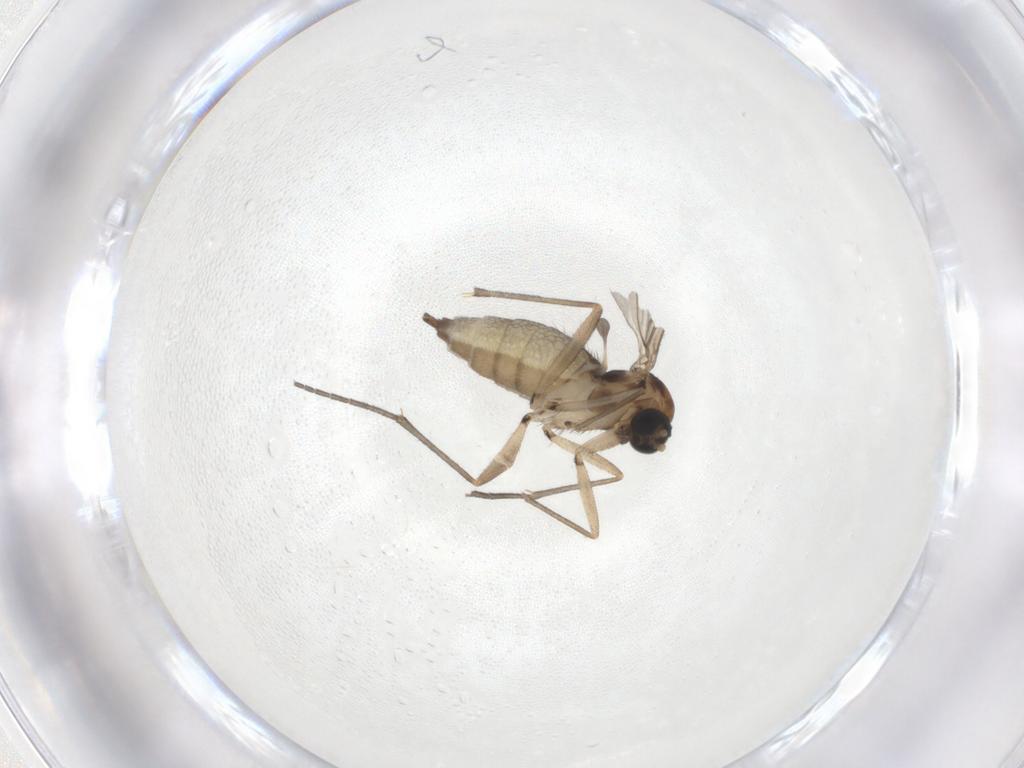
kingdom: Animalia
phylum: Arthropoda
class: Insecta
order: Diptera
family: Sciaridae
